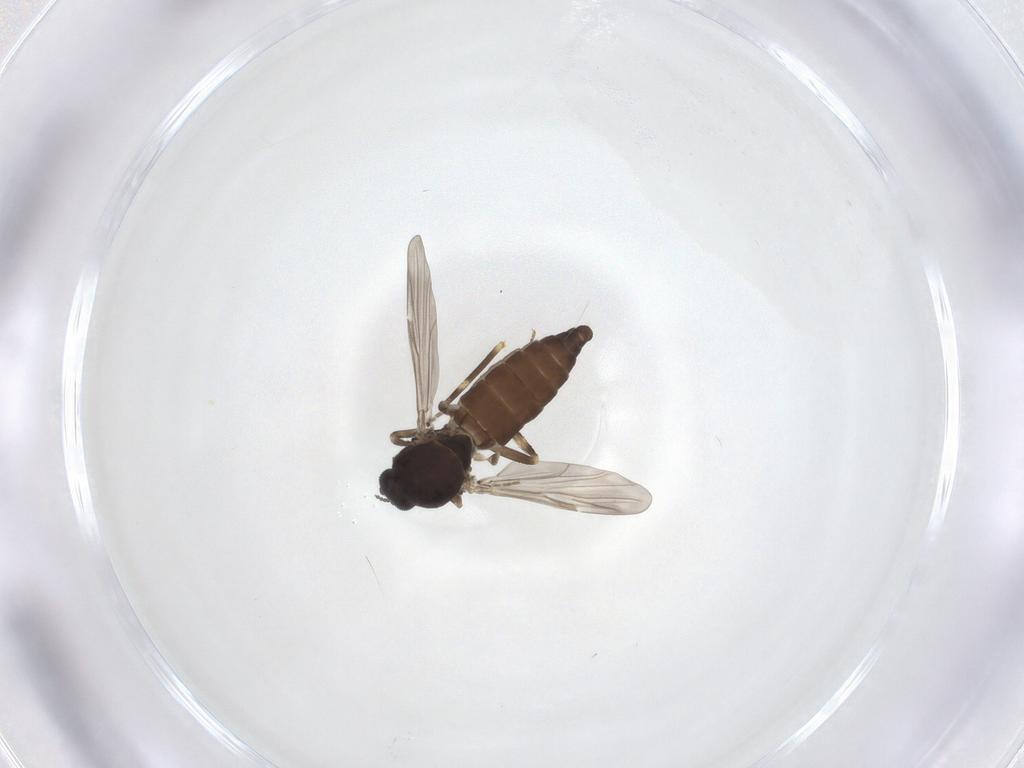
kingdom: Animalia
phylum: Arthropoda
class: Insecta
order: Diptera
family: Ceratopogonidae
